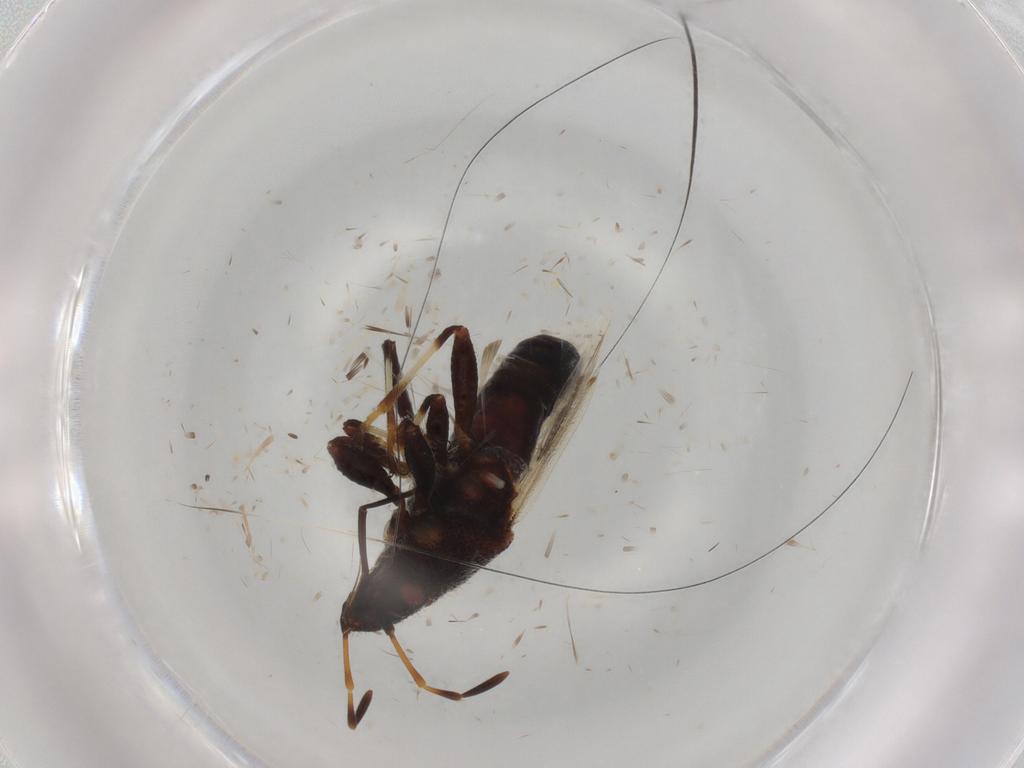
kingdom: Animalia
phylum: Arthropoda
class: Insecta
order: Hemiptera
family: Oxycarenidae
